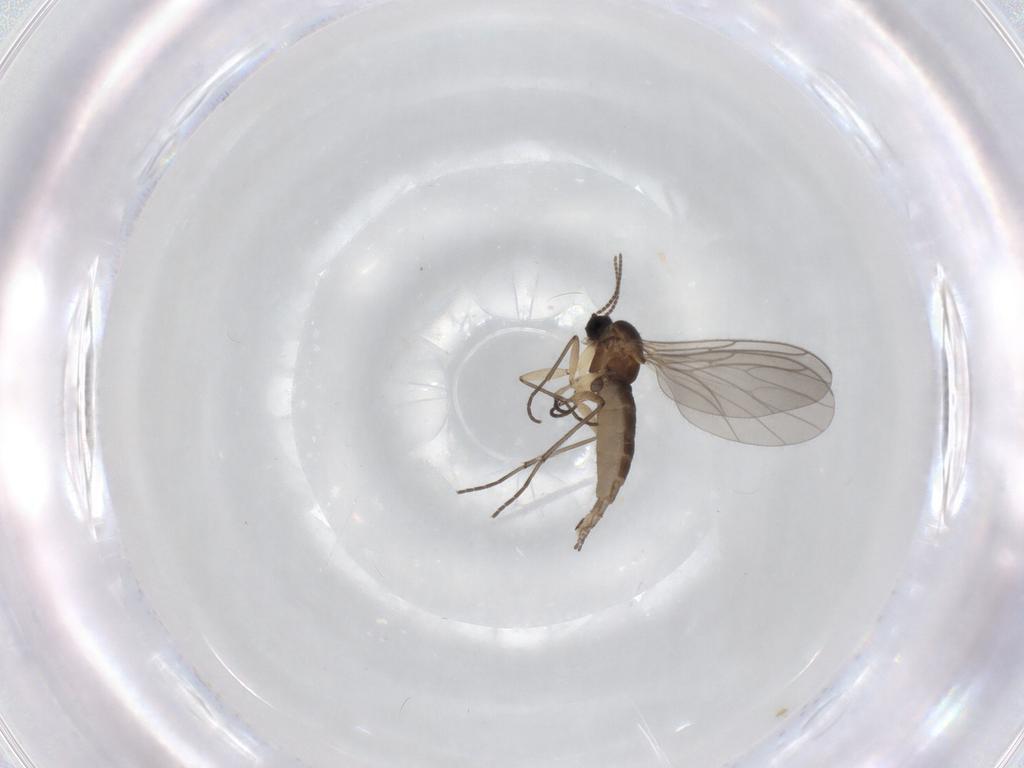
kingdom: Animalia
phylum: Arthropoda
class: Insecta
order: Diptera
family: Sciaridae
